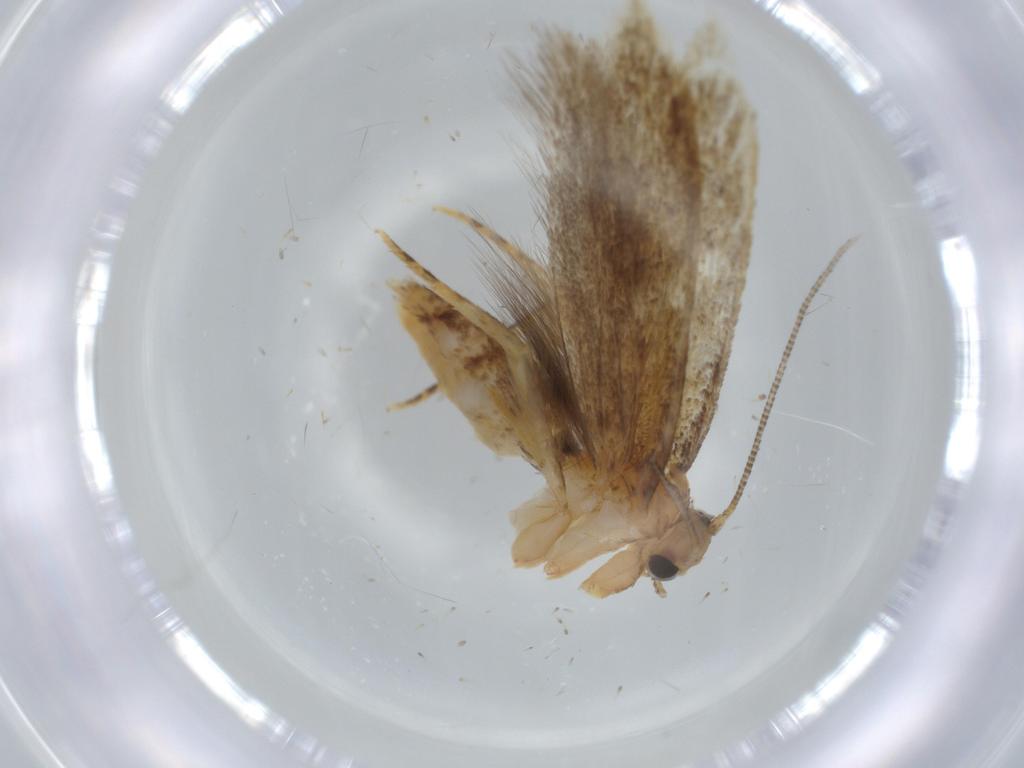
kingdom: Animalia
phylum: Arthropoda
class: Insecta
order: Lepidoptera
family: Tineidae
